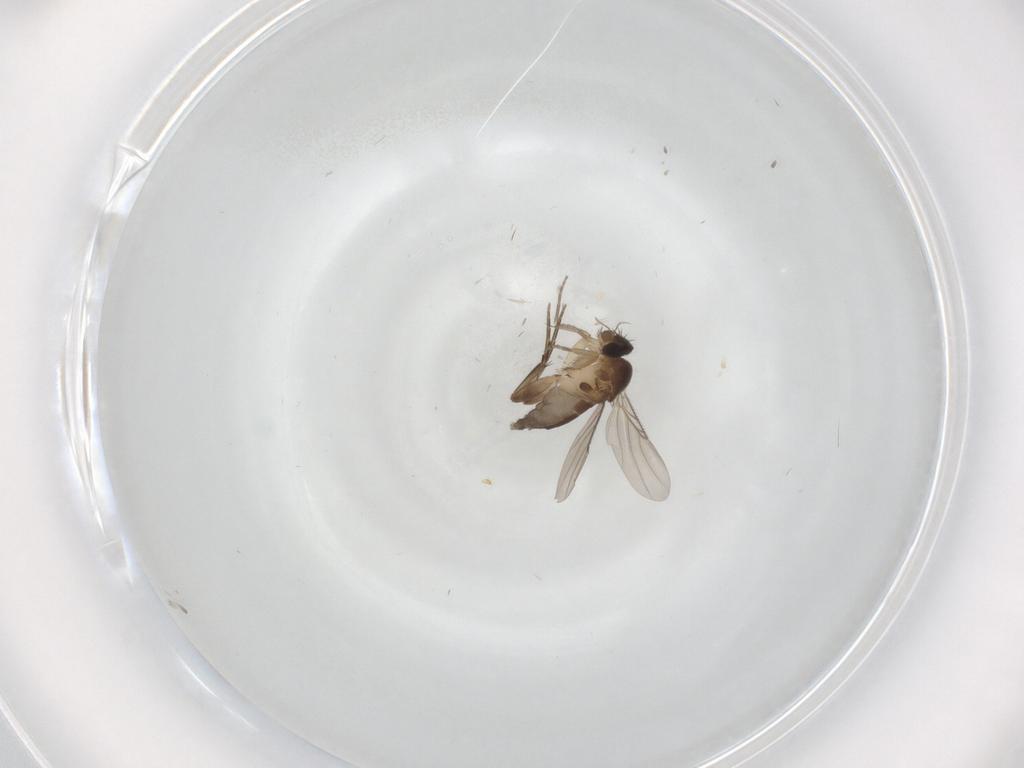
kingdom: Animalia
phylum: Arthropoda
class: Insecta
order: Diptera
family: Phoridae
